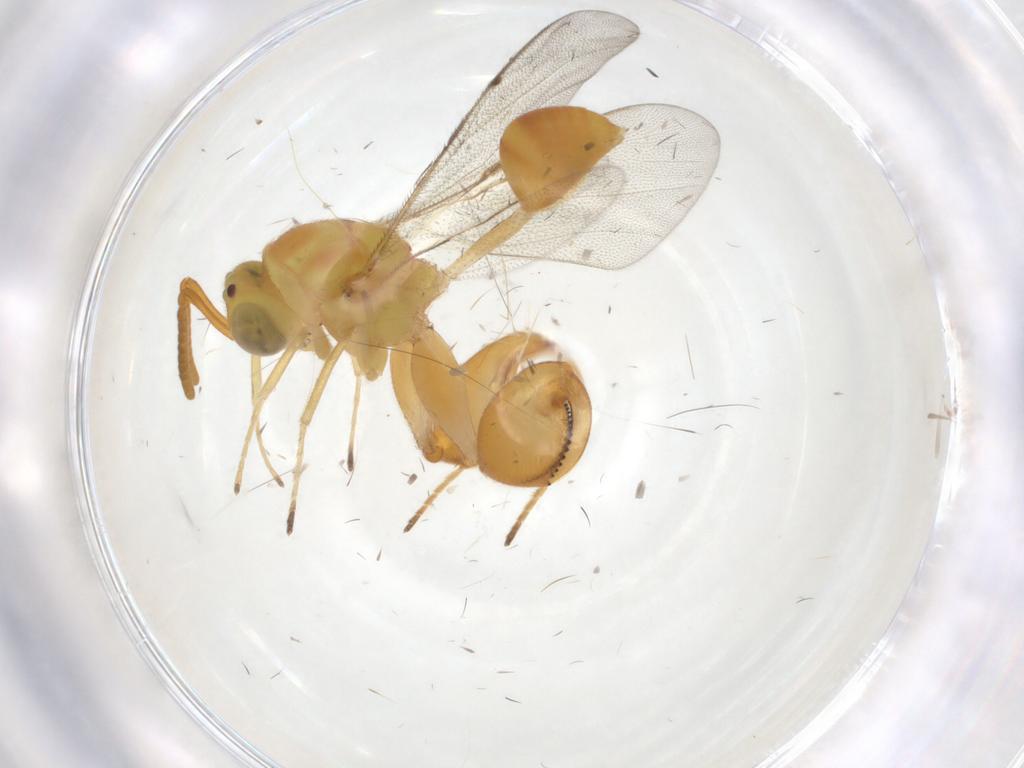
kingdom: Animalia
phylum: Arthropoda
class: Insecta
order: Hymenoptera
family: Chalcididae
